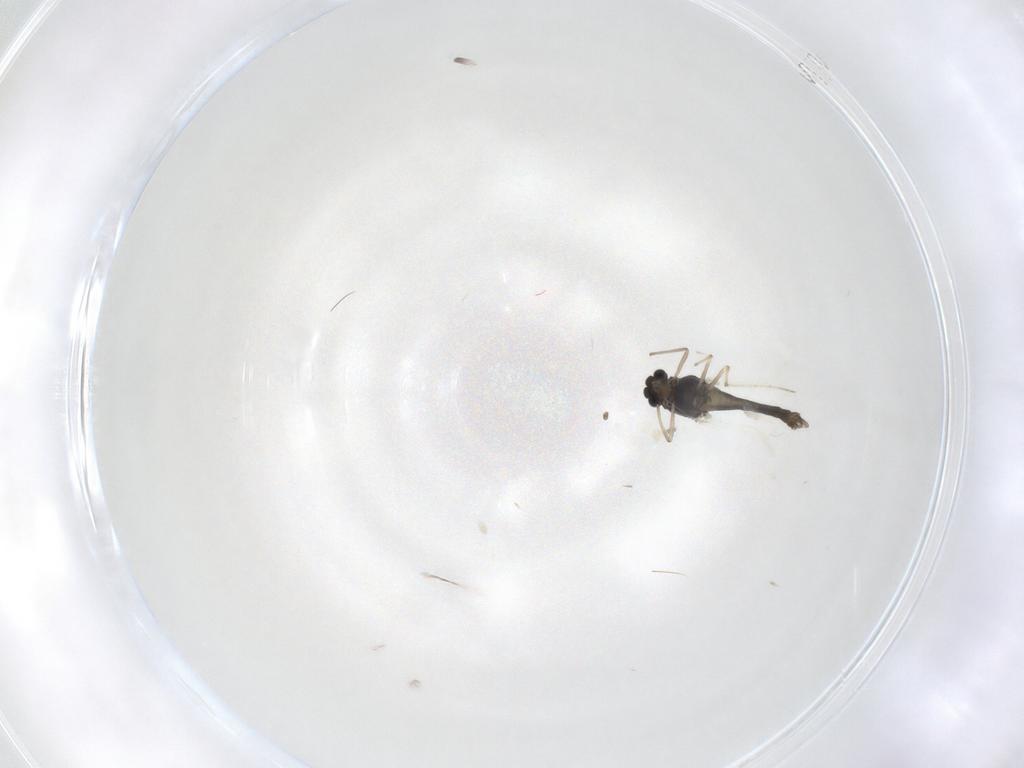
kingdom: Animalia
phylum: Arthropoda
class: Insecta
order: Diptera
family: Chironomidae
